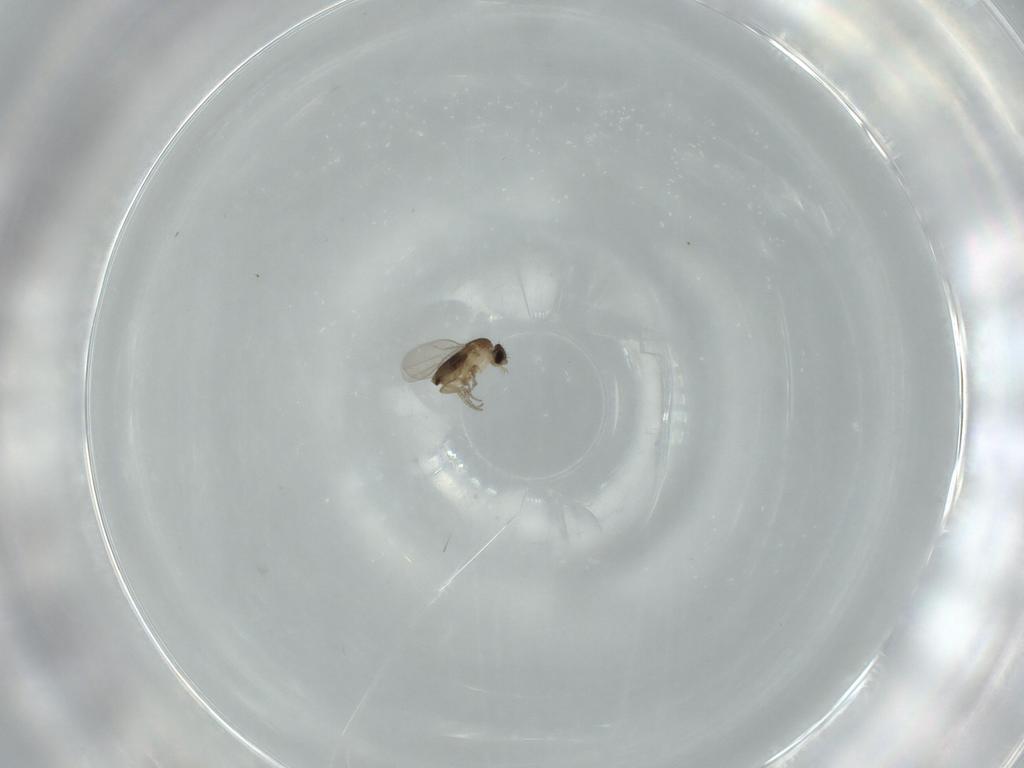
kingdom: Animalia
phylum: Arthropoda
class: Insecta
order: Diptera
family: Phoridae
